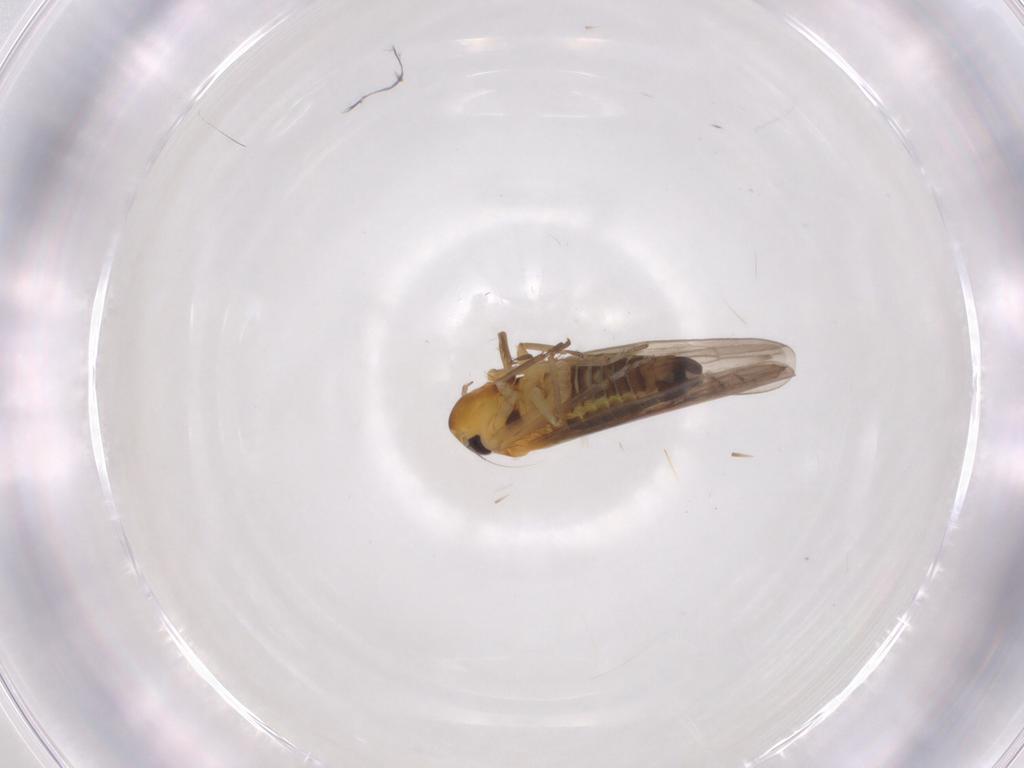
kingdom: Animalia
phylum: Arthropoda
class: Insecta
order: Hemiptera
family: Cicadellidae
